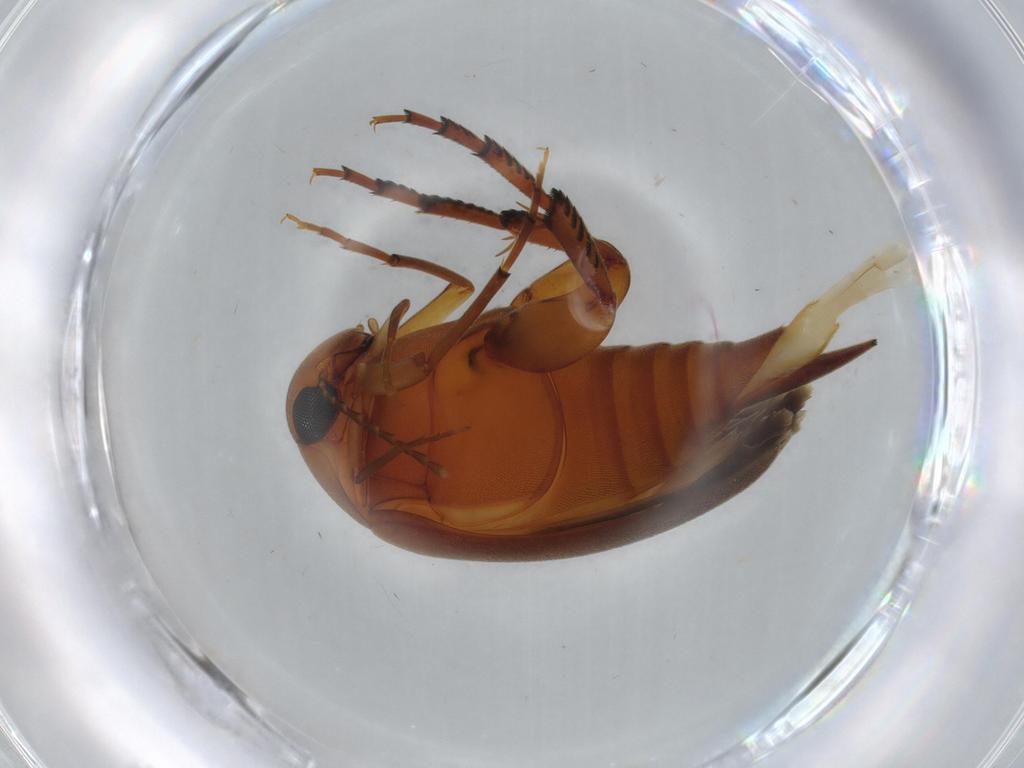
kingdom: Animalia
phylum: Arthropoda
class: Insecta
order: Coleoptera
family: Mordellidae
